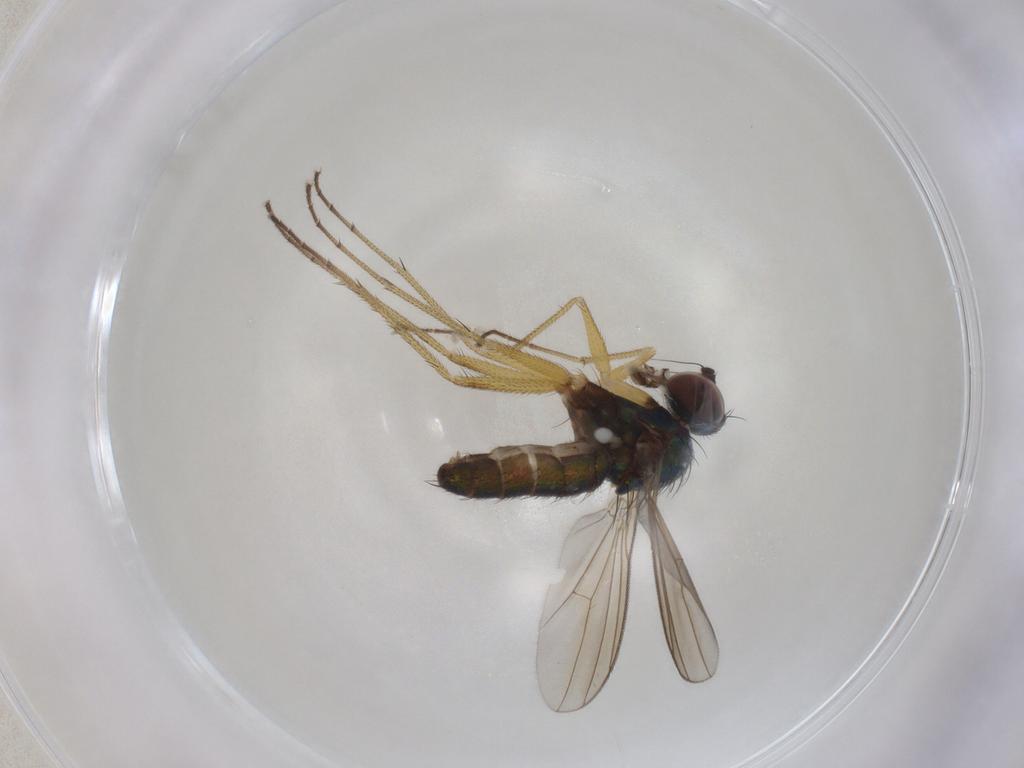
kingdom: Animalia
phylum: Arthropoda
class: Insecta
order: Diptera
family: Dolichopodidae
